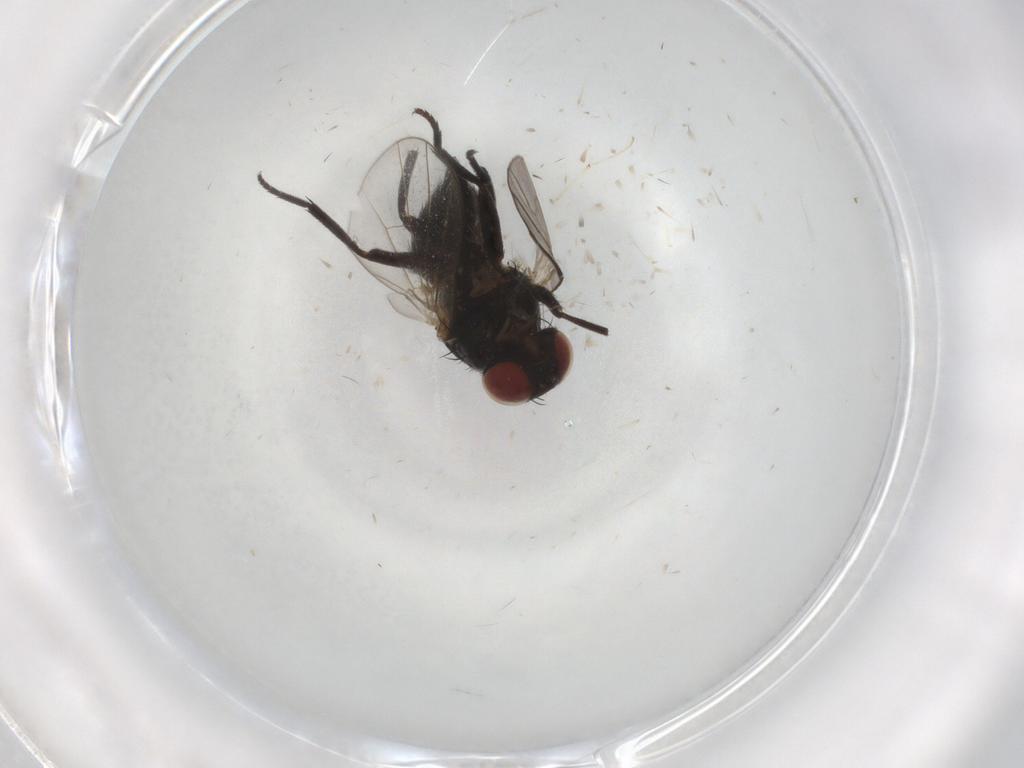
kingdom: Animalia
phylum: Arthropoda
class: Insecta
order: Diptera
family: Agromyzidae
